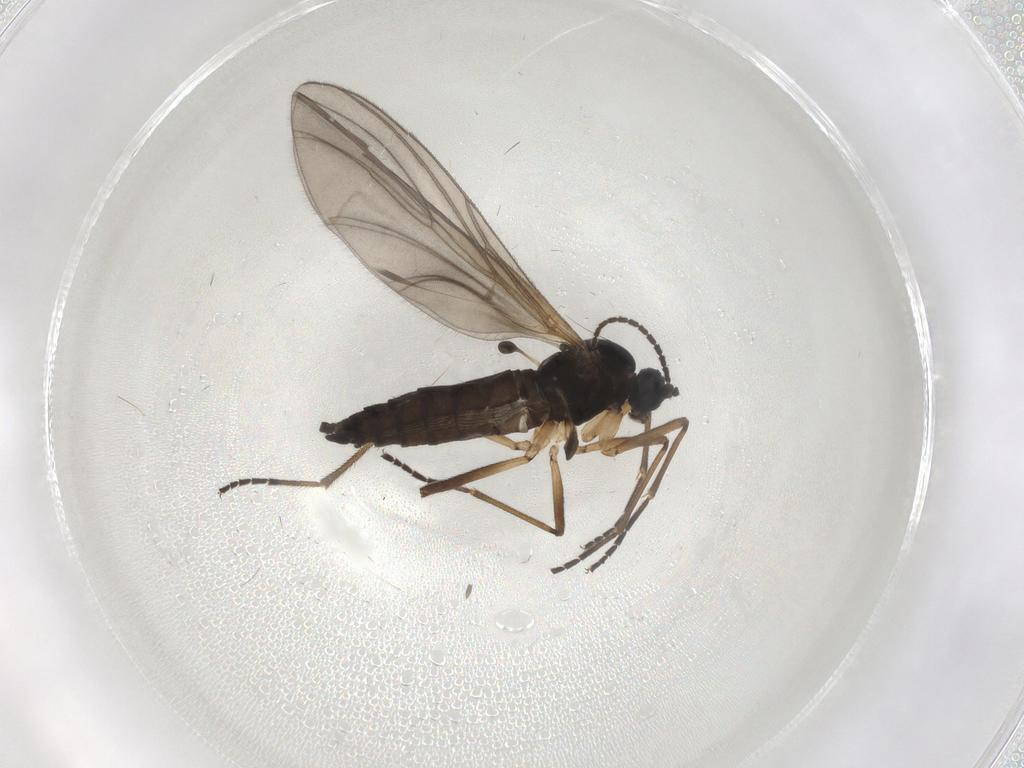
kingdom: Animalia
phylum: Arthropoda
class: Insecta
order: Diptera
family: Sciaridae
